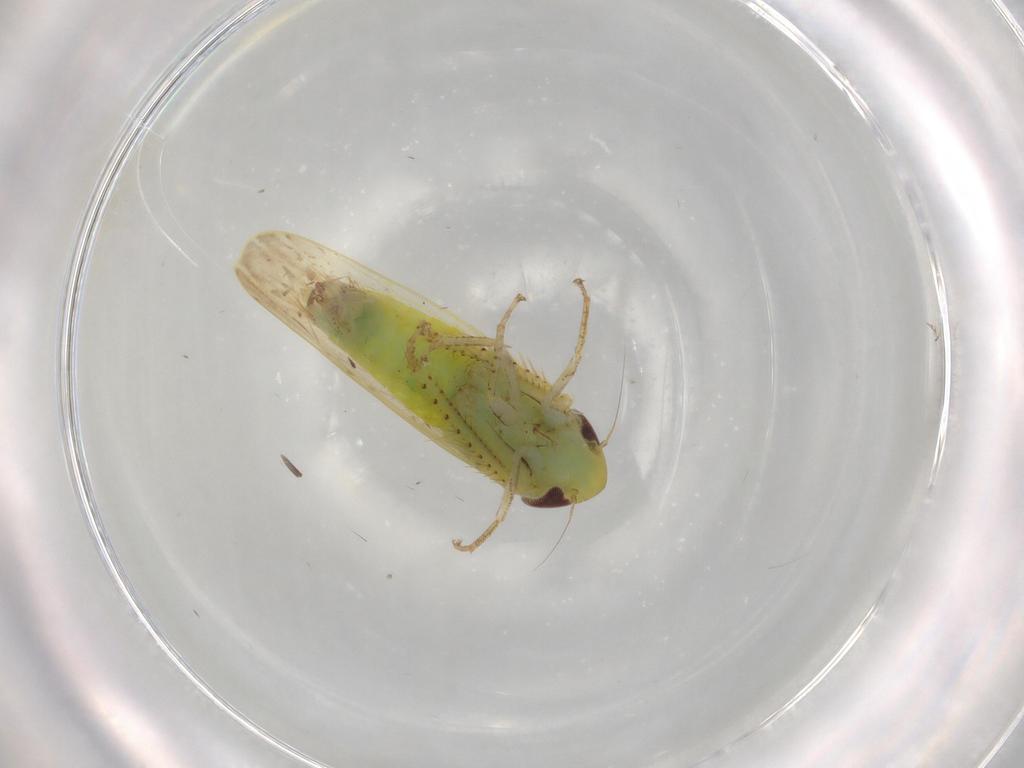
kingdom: Animalia
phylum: Arthropoda
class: Insecta
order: Hemiptera
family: Cicadellidae
